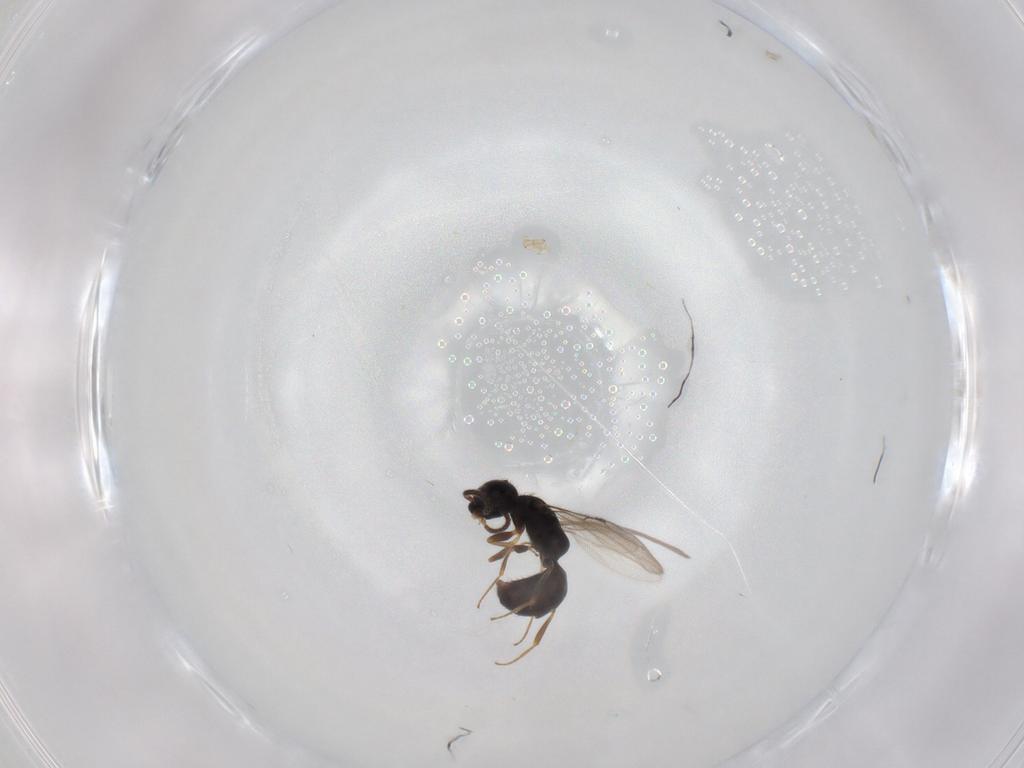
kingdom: Animalia
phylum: Arthropoda
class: Insecta
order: Hymenoptera
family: Bethylidae
